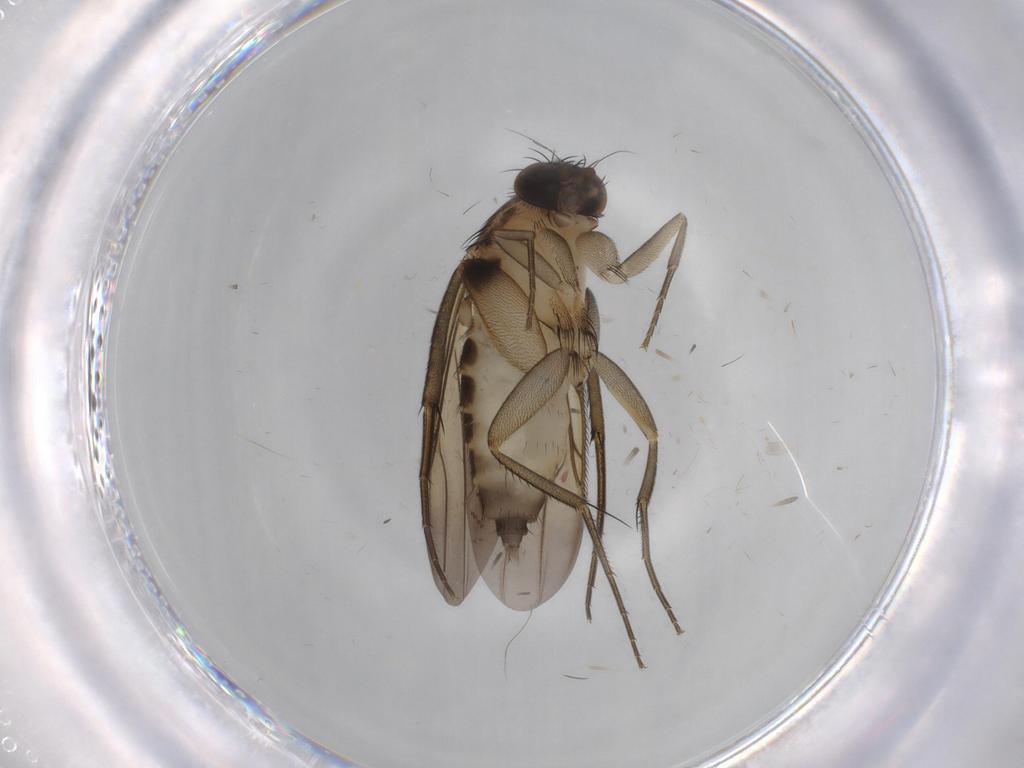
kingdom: Animalia
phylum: Arthropoda
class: Insecta
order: Diptera
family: Phoridae
